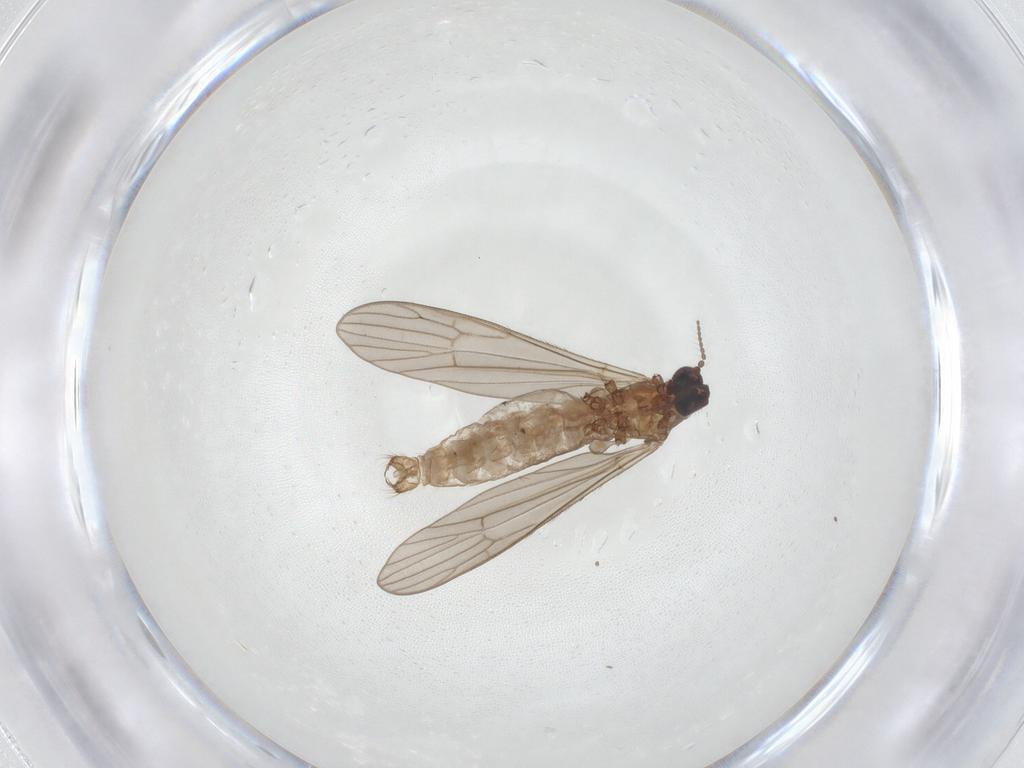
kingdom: Animalia
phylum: Arthropoda
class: Insecta
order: Diptera
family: Limoniidae
